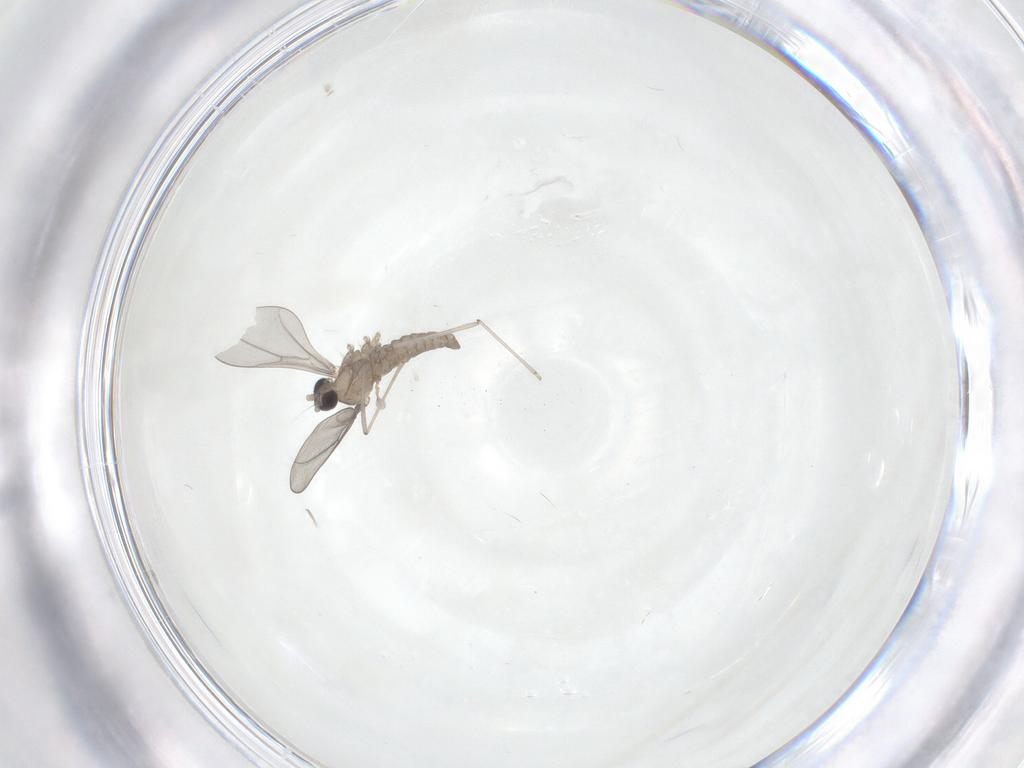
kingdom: Animalia
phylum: Arthropoda
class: Insecta
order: Diptera
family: Cecidomyiidae
